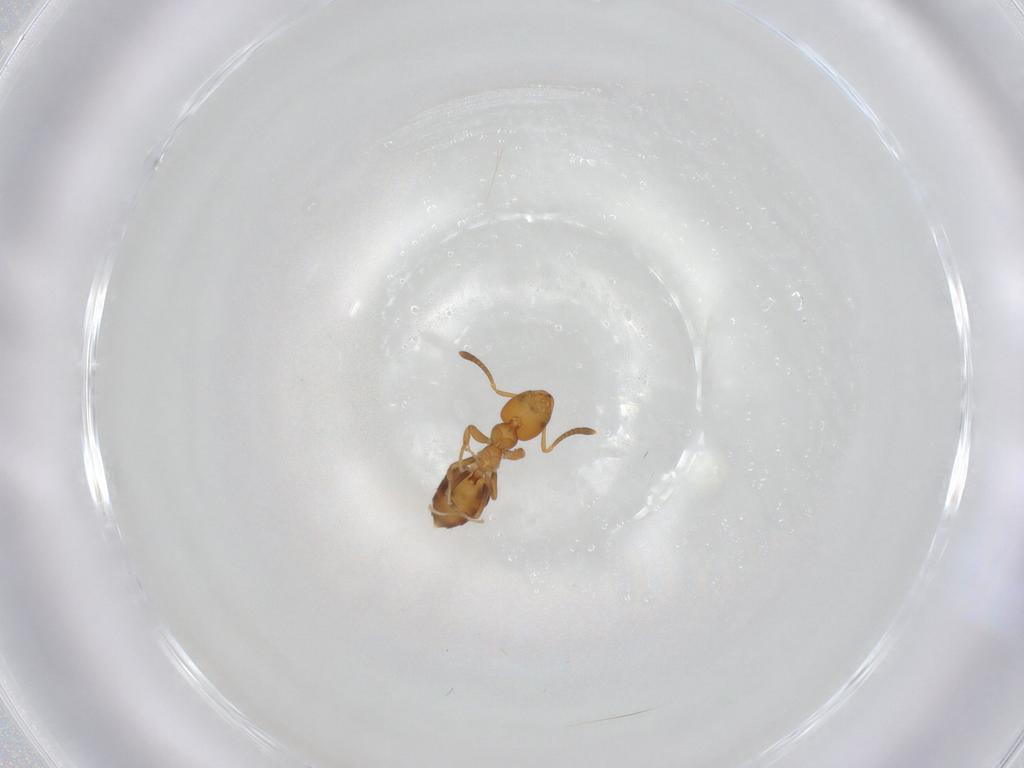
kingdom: Animalia
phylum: Arthropoda
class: Insecta
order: Hymenoptera
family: Formicidae
